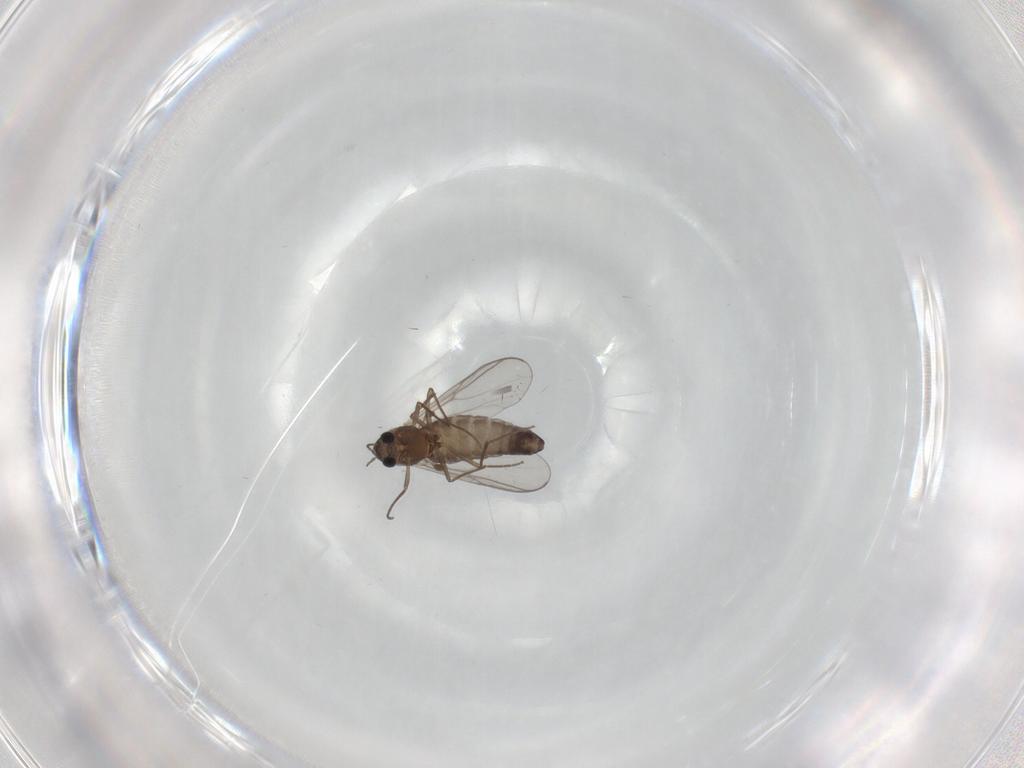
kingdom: Animalia
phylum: Arthropoda
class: Insecta
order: Diptera
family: Chironomidae
